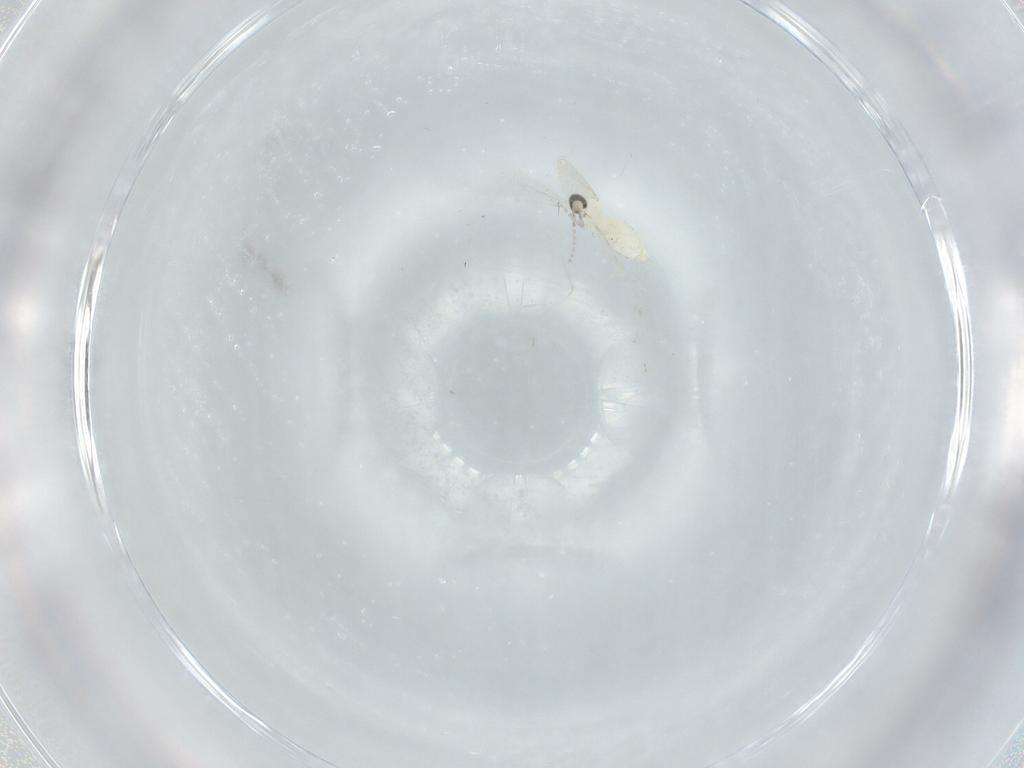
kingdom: Animalia
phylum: Arthropoda
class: Insecta
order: Diptera
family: Cecidomyiidae
